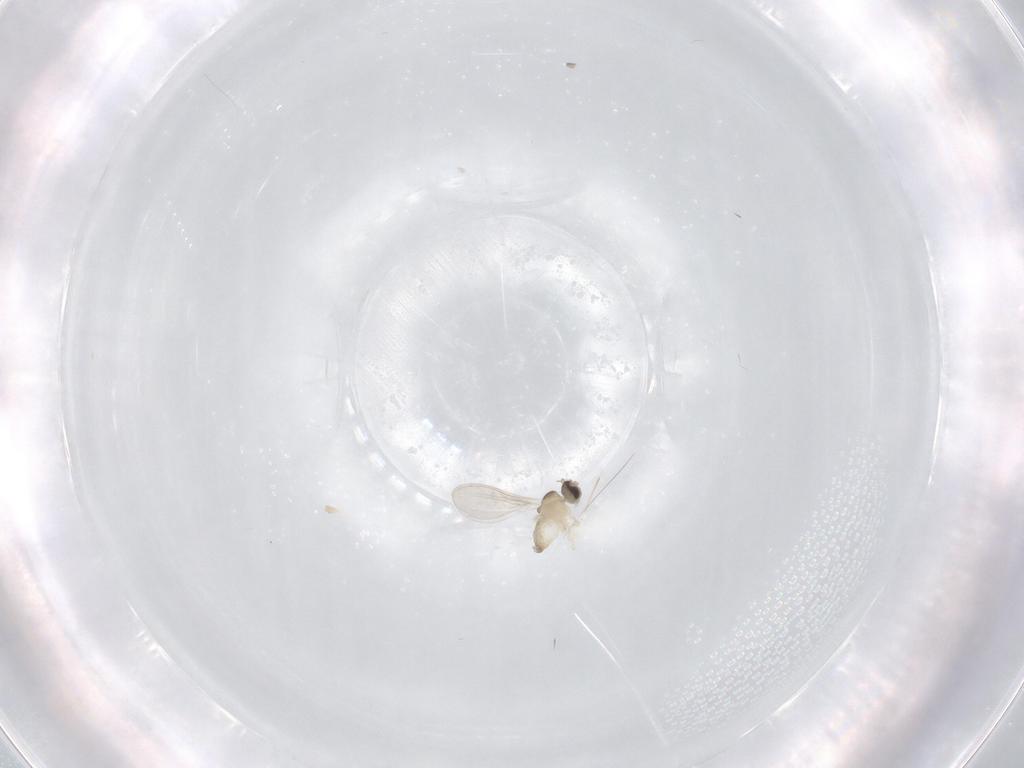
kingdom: Animalia
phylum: Arthropoda
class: Insecta
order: Diptera
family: Cecidomyiidae
